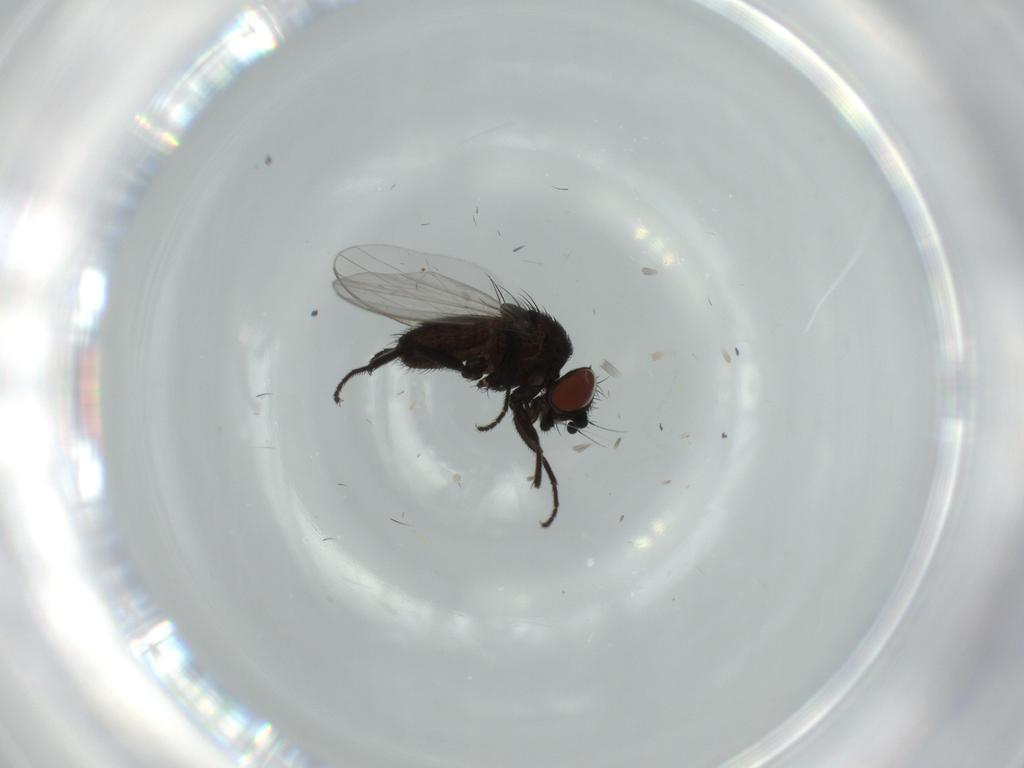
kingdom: Animalia
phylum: Arthropoda
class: Insecta
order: Diptera
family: Milichiidae
